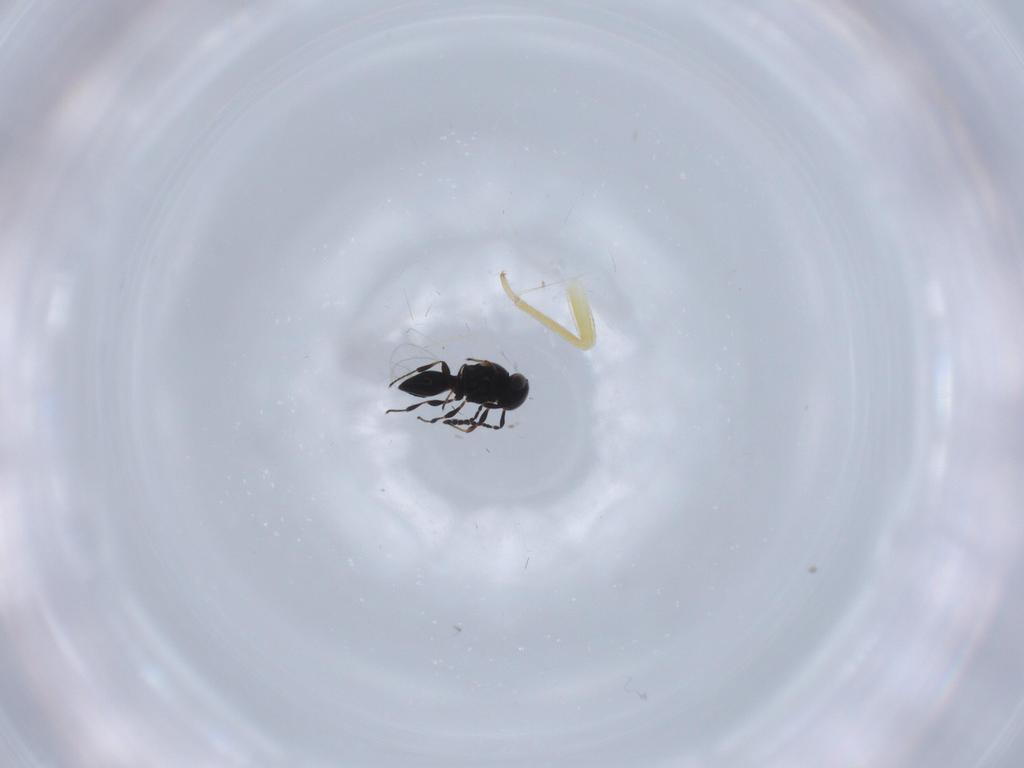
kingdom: Animalia
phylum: Arthropoda
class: Insecta
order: Hymenoptera
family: Platygastridae
